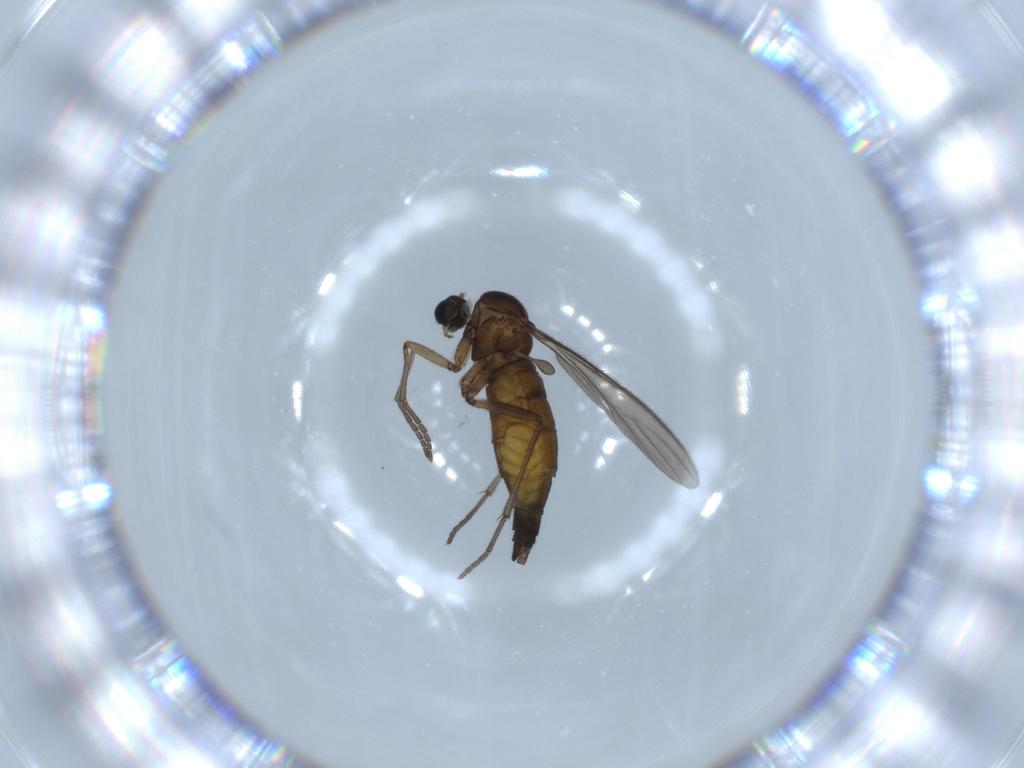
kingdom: Animalia
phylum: Arthropoda
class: Insecta
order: Diptera
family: Sciaridae
